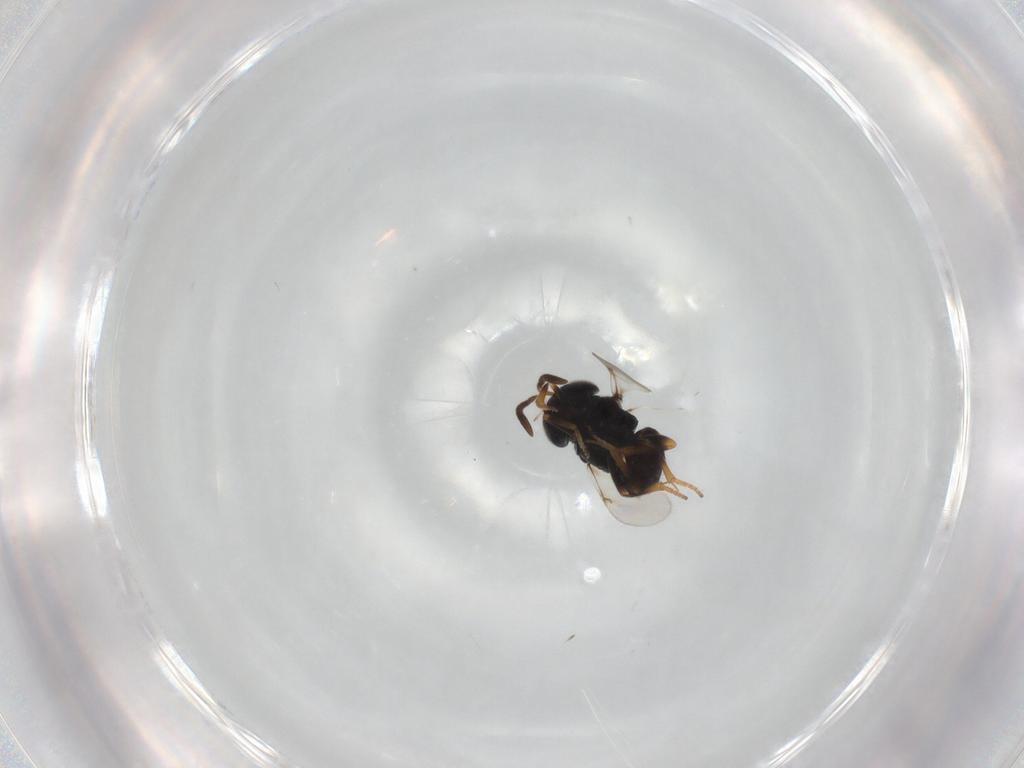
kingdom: Animalia
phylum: Arthropoda
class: Insecta
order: Hymenoptera
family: Encyrtidae
